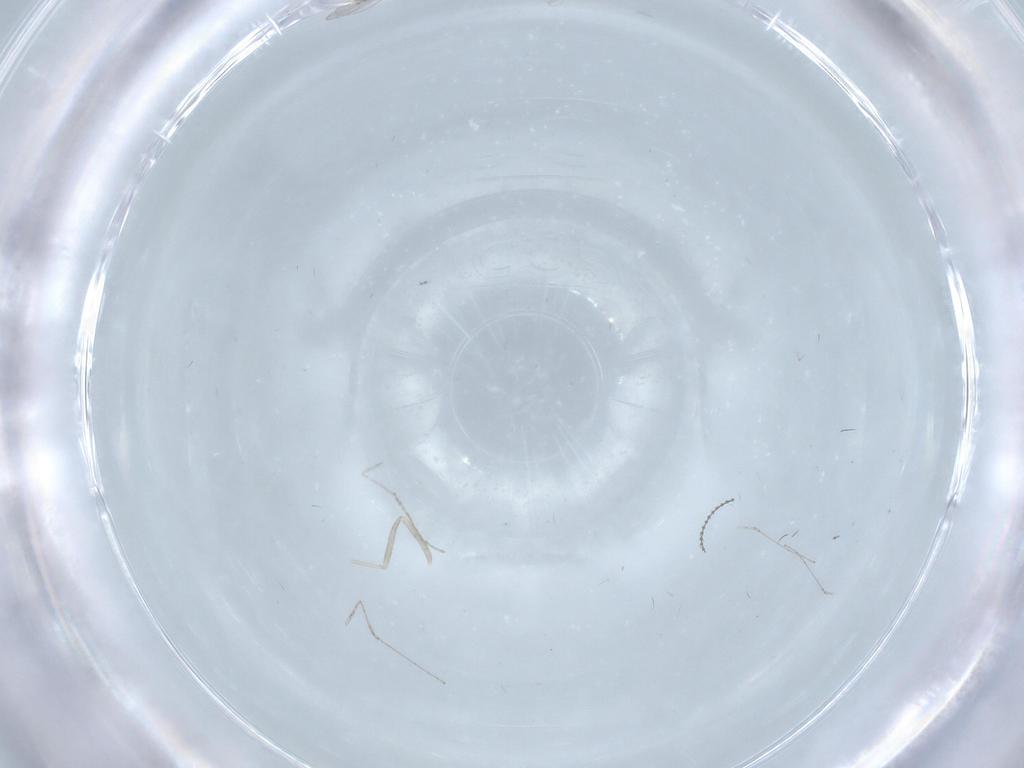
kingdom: Animalia
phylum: Arthropoda
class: Insecta
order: Diptera
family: Cecidomyiidae
